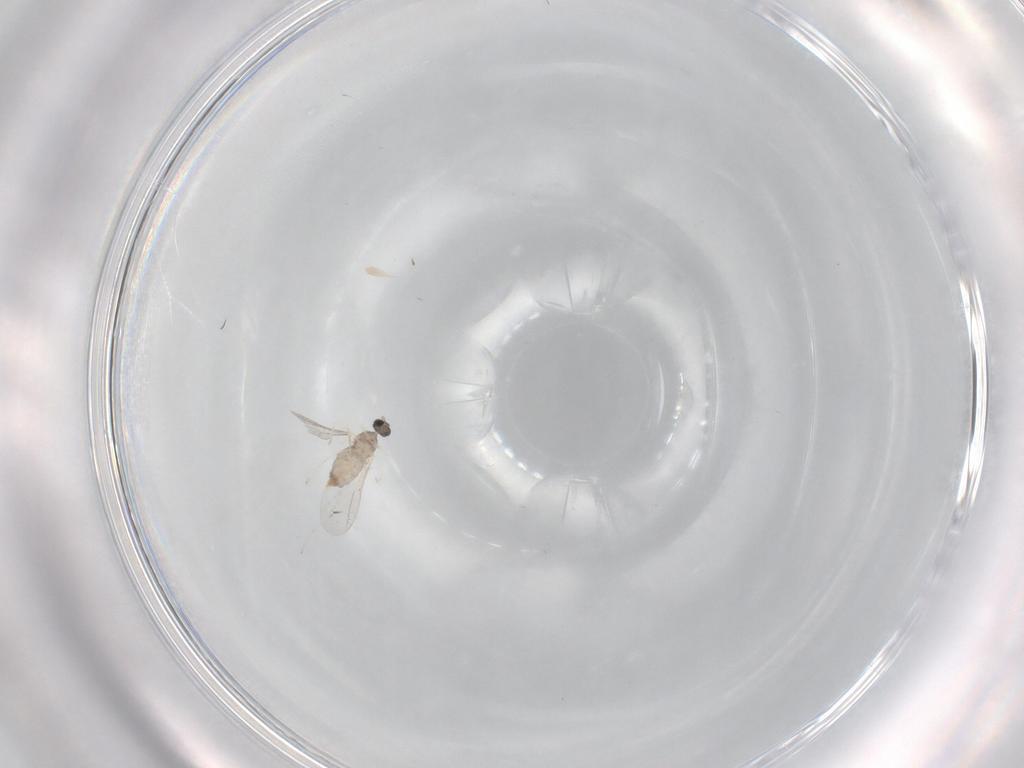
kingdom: Animalia
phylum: Arthropoda
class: Insecta
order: Diptera
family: Cecidomyiidae
